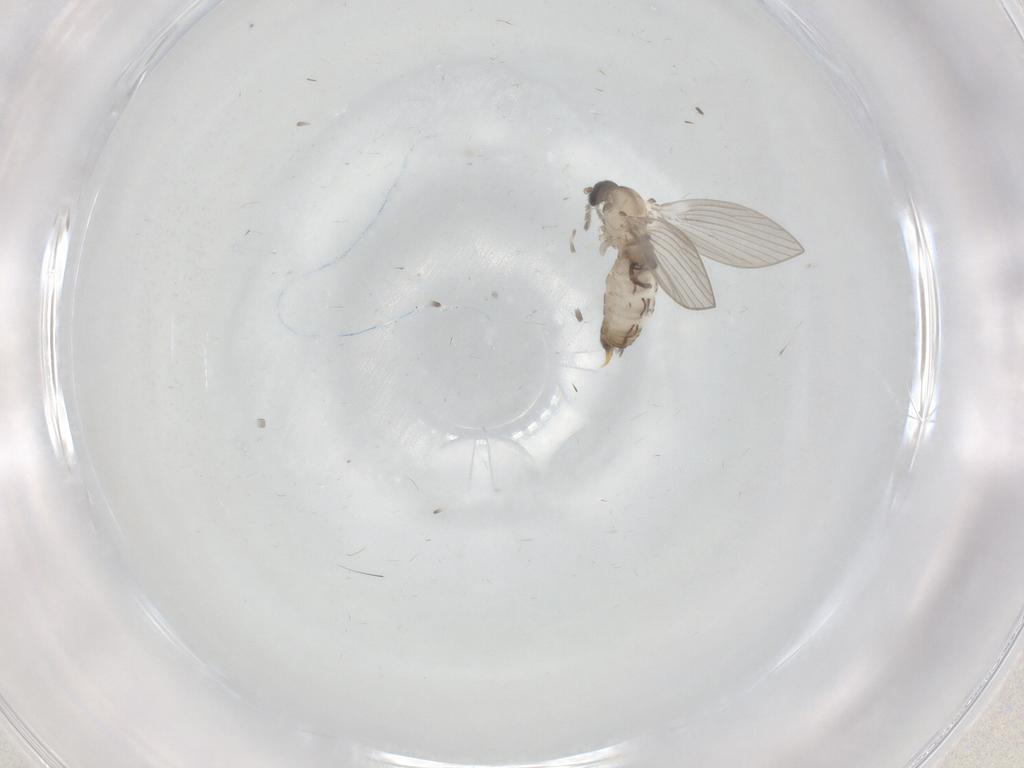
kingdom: Animalia
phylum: Arthropoda
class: Insecta
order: Diptera
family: Psychodidae
